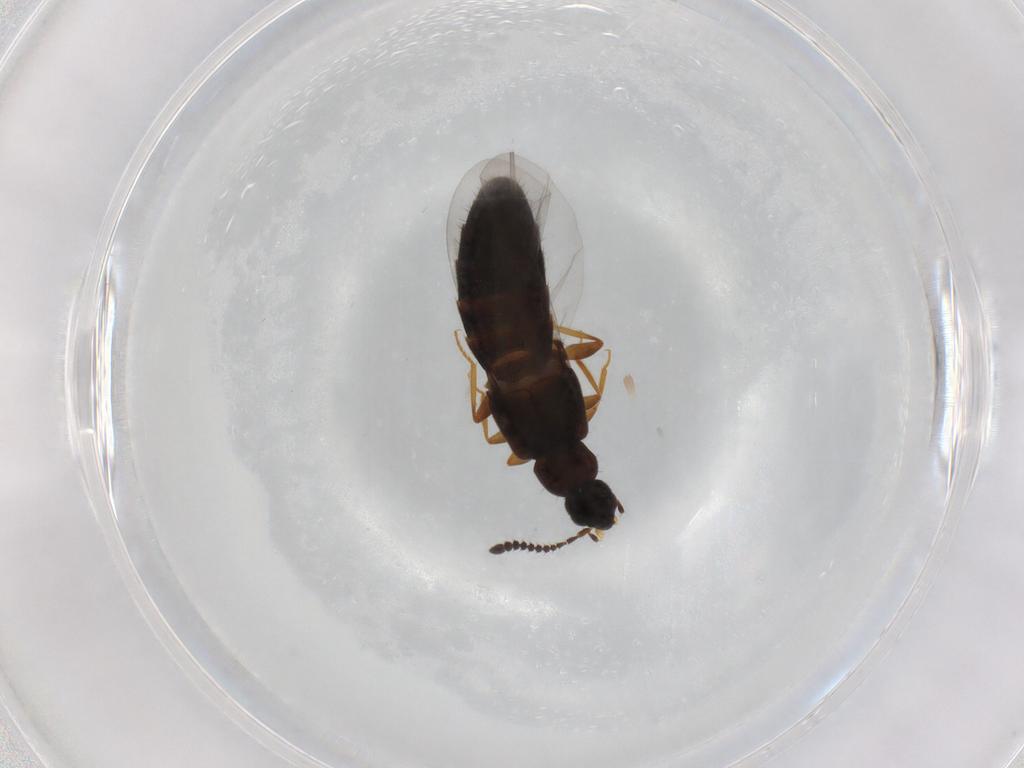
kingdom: Animalia
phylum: Arthropoda
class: Insecta
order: Coleoptera
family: Staphylinidae
